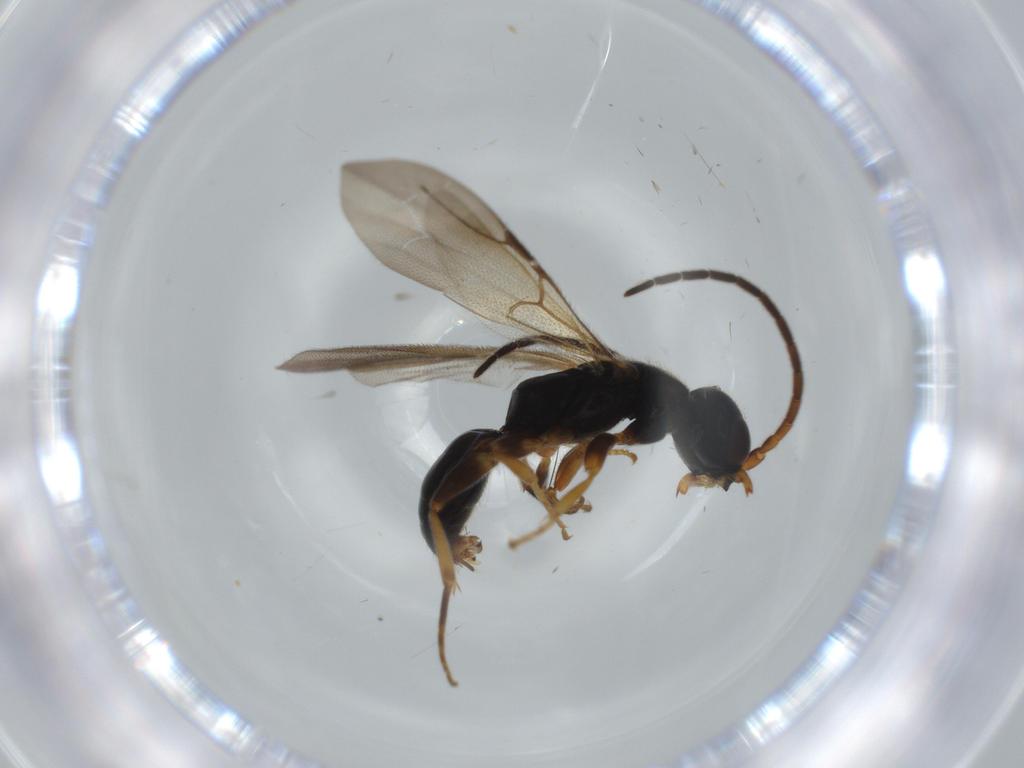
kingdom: Animalia
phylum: Arthropoda
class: Insecta
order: Hymenoptera
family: Bethylidae
